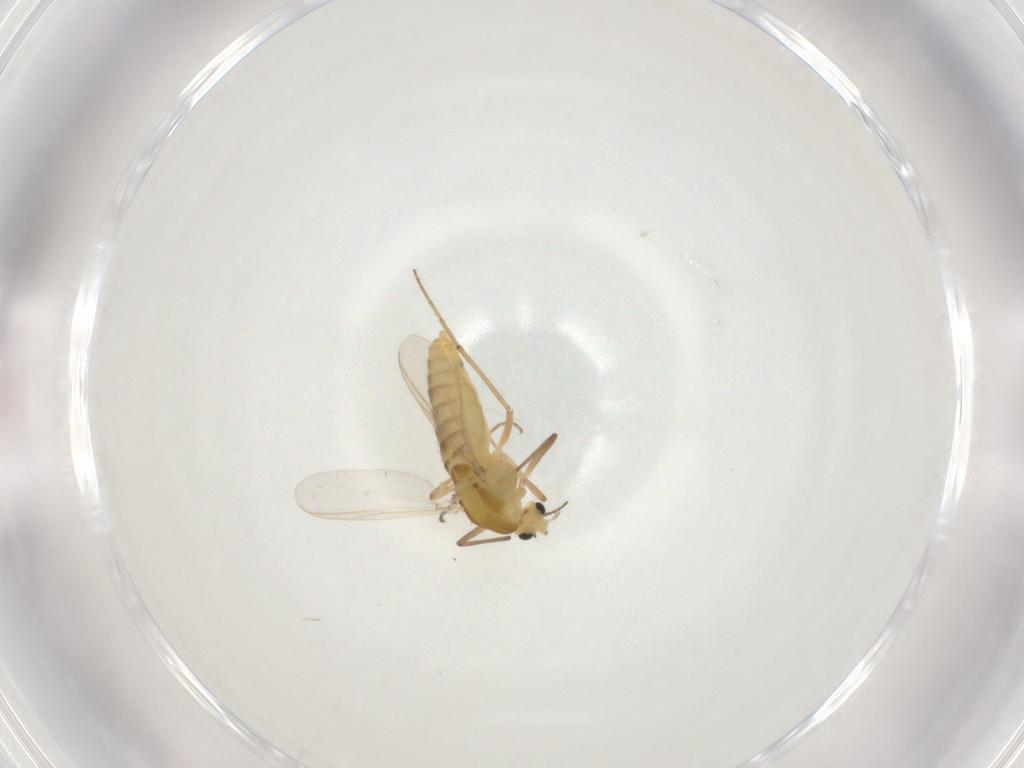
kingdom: Animalia
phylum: Arthropoda
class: Insecta
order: Diptera
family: Chironomidae
